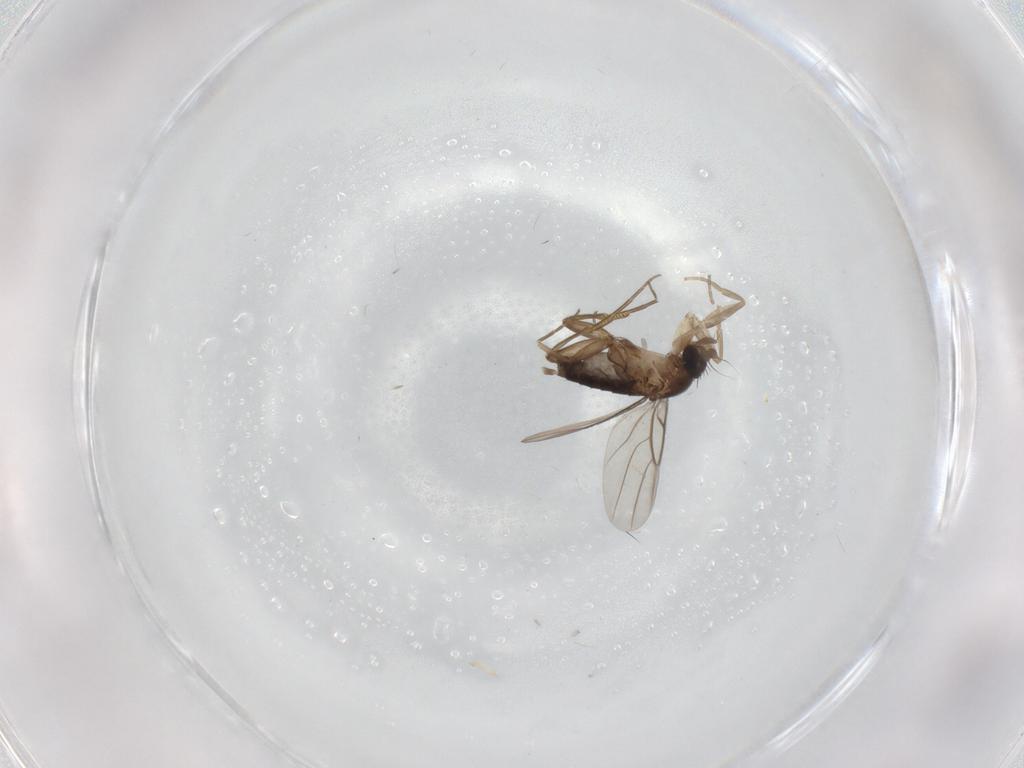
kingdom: Animalia
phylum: Arthropoda
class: Insecta
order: Diptera
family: Phoridae
